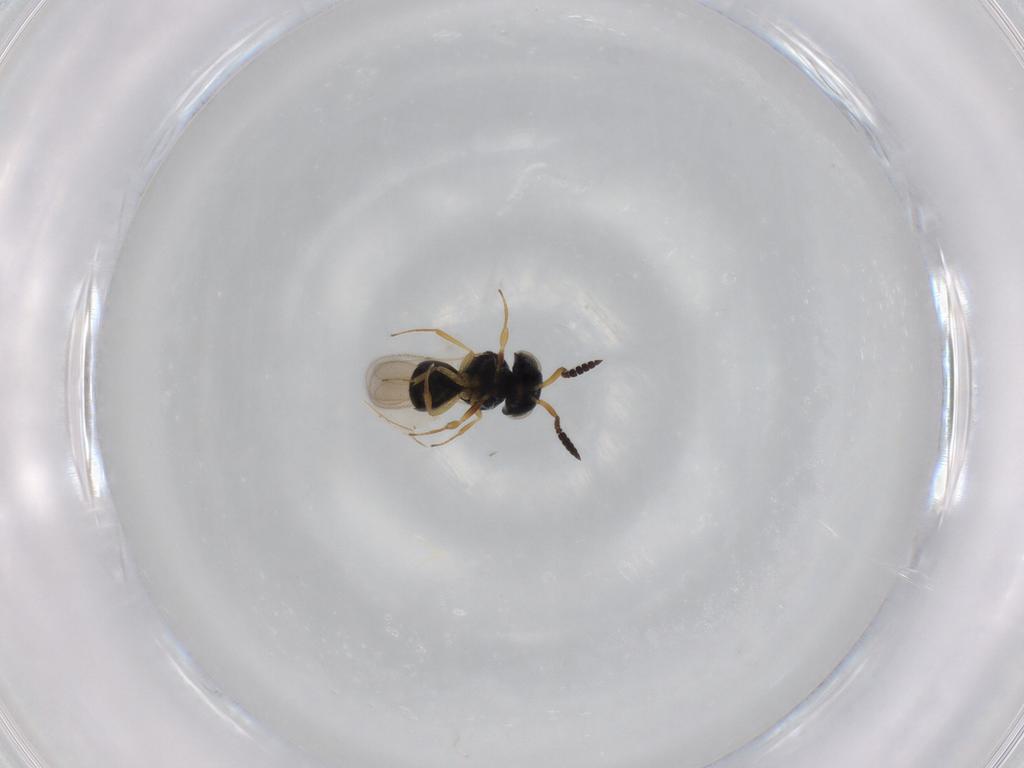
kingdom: Animalia
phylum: Arthropoda
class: Insecta
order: Hymenoptera
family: Scelionidae
